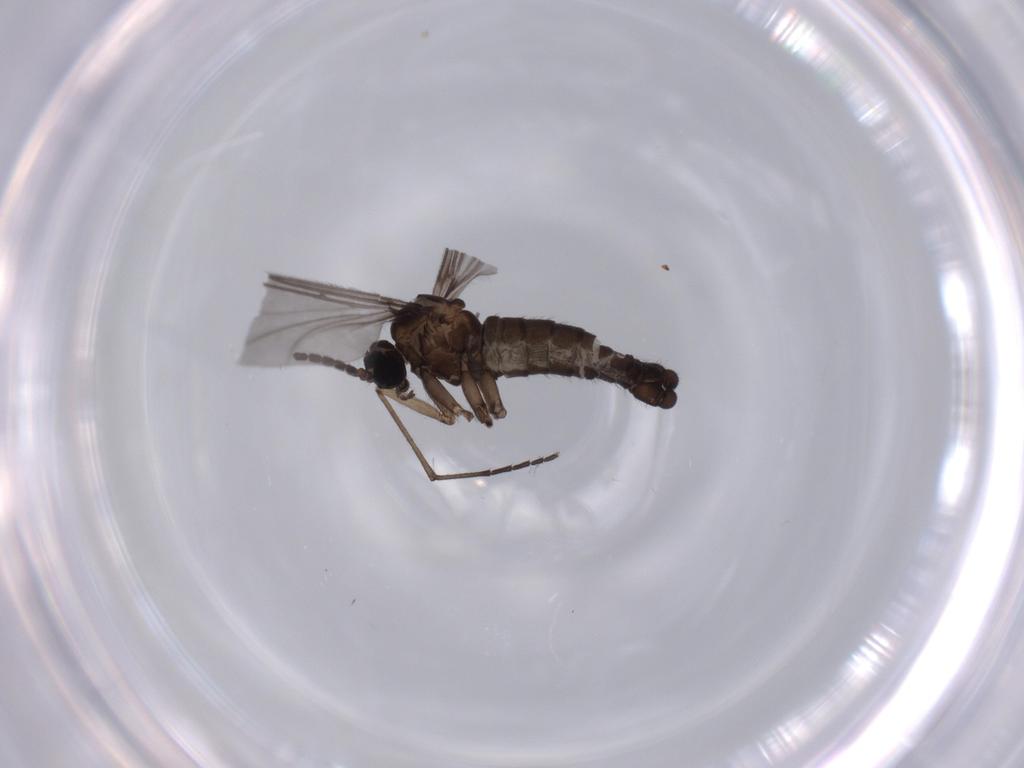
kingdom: Animalia
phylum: Arthropoda
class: Insecta
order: Diptera
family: Sciaridae
